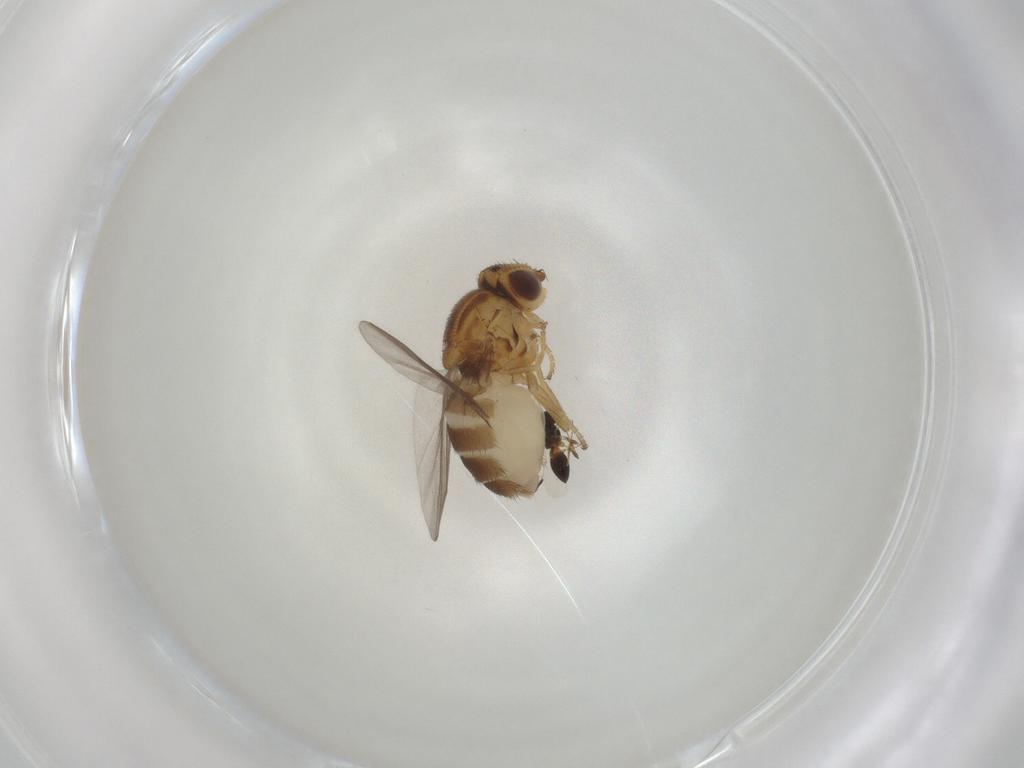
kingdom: Animalia
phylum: Arthropoda
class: Insecta
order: Diptera
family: Chloropidae
